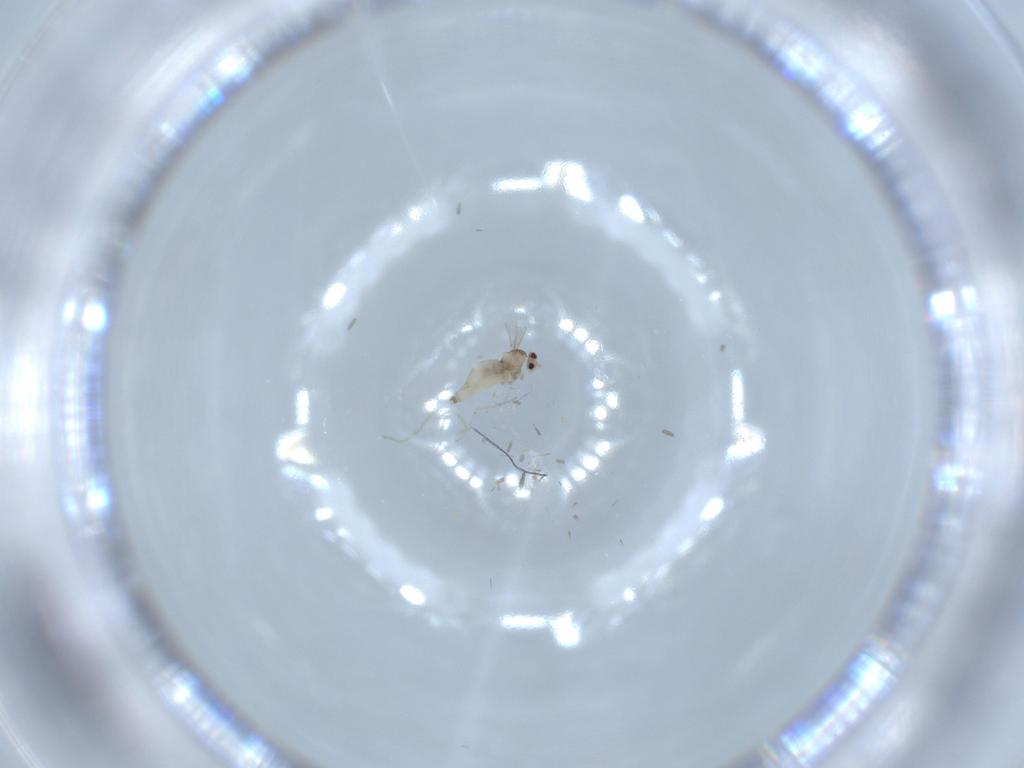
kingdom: Animalia
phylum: Arthropoda
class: Insecta
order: Diptera
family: Cecidomyiidae
